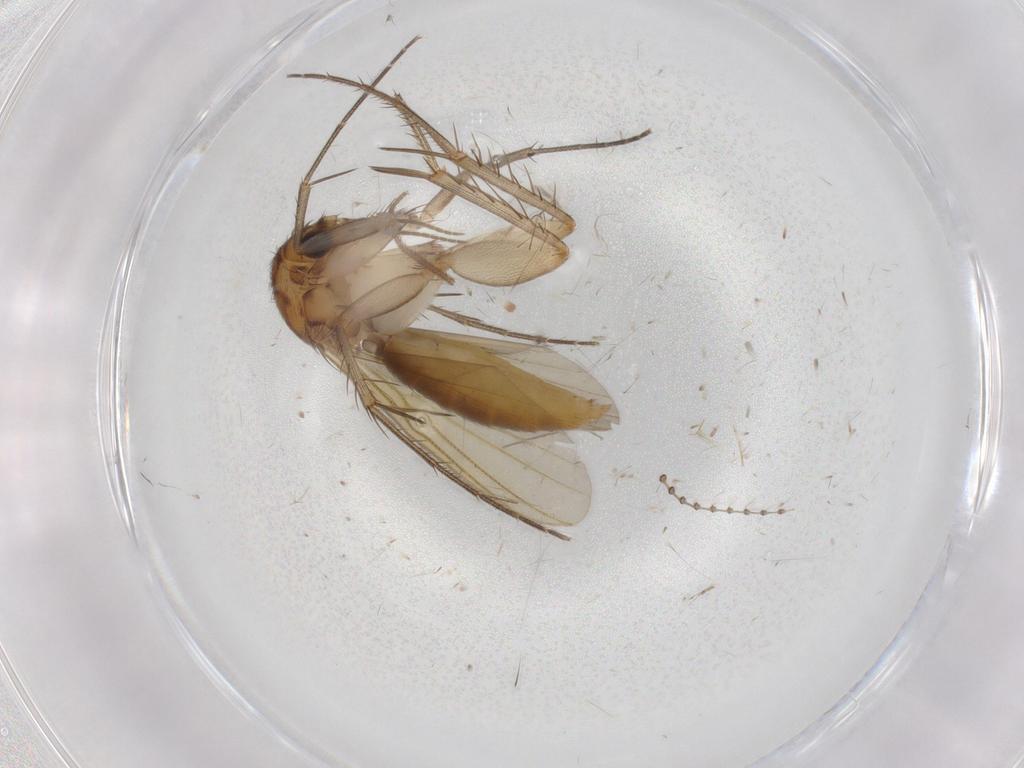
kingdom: Animalia
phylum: Arthropoda
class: Insecta
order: Diptera
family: Mycetophilidae
